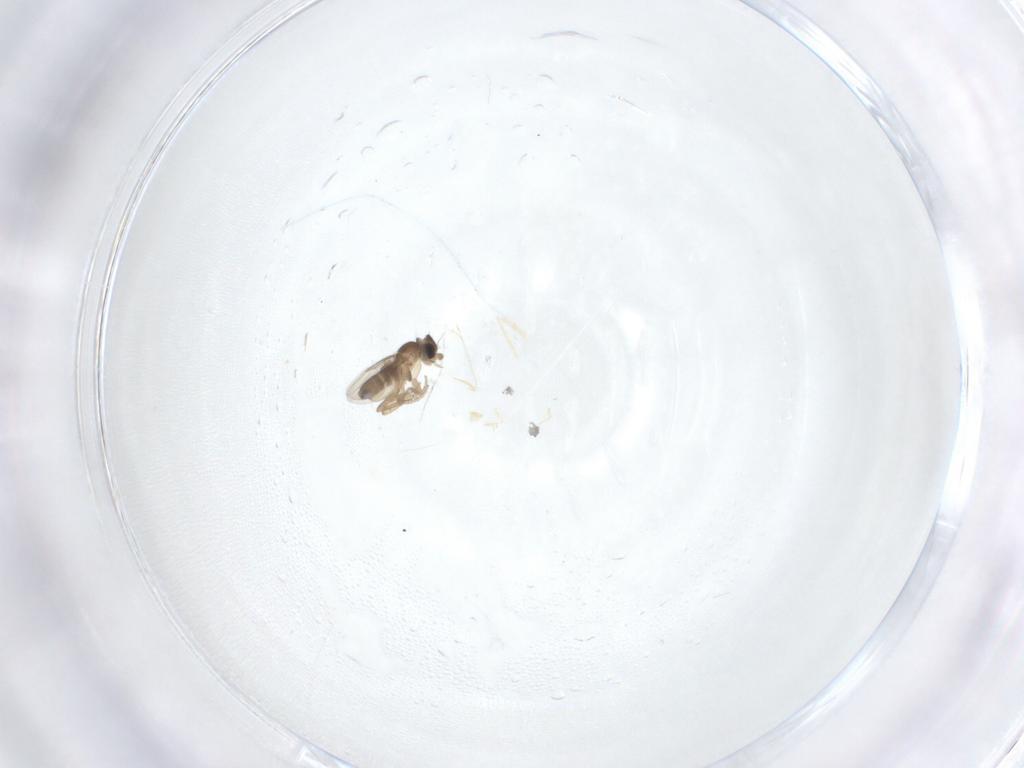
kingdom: Animalia
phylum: Arthropoda
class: Insecta
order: Diptera
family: Phoridae
